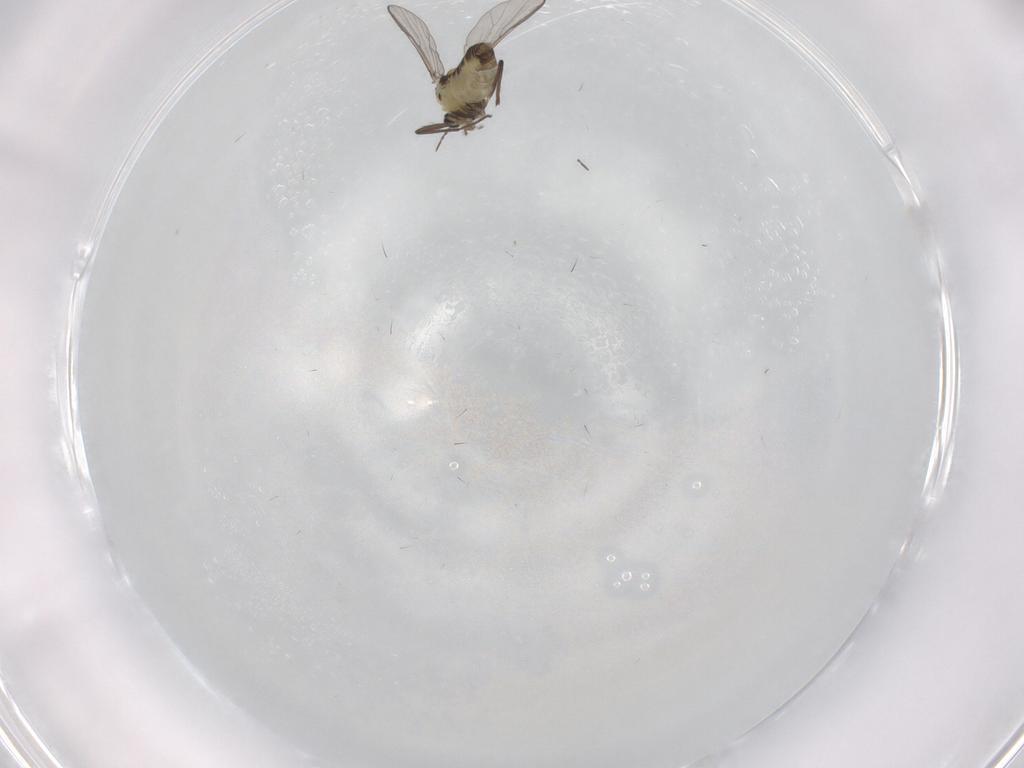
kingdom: Animalia
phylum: Arthropoda
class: Insecta
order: Diptera
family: Chironomidae
